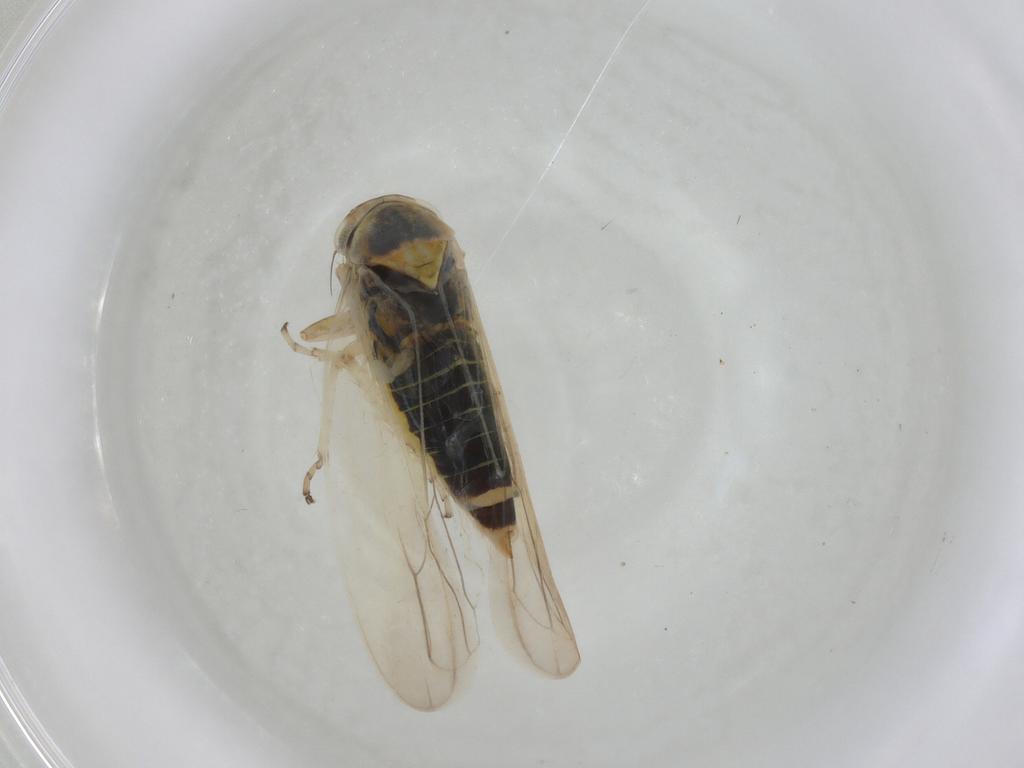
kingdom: Animalia
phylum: Arthropoda
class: Insecta
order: Hemiptera
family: Cicadellidae
